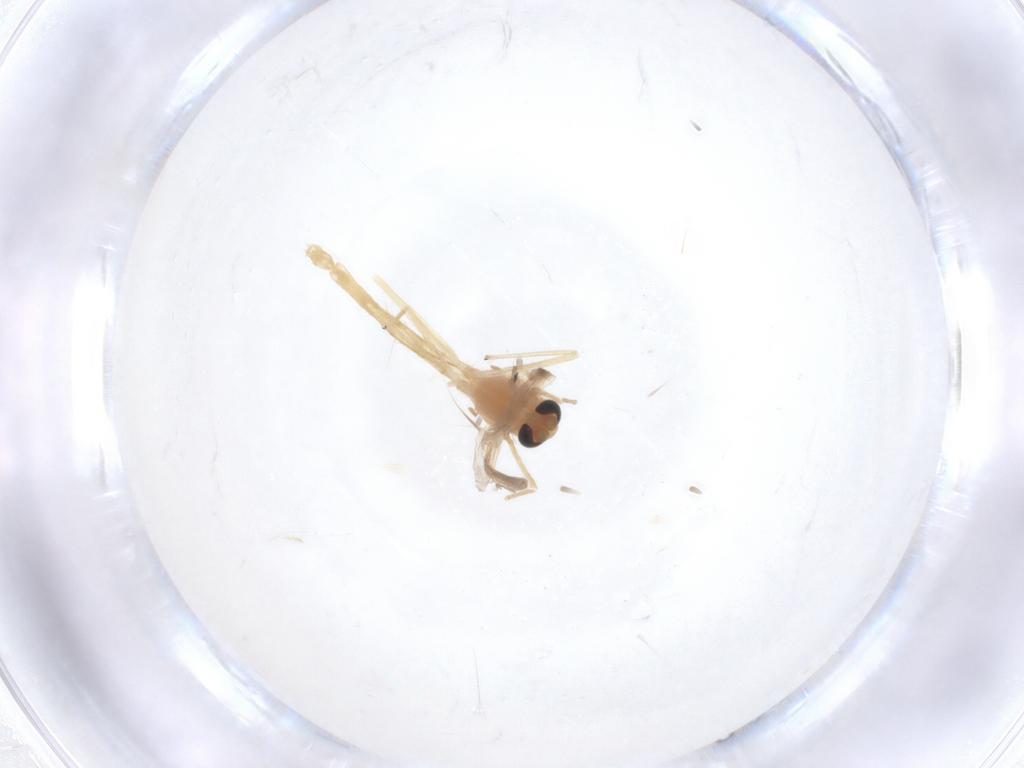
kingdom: Animalia
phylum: Arthropoda
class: Insecta
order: Diptera
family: Chironomidae
